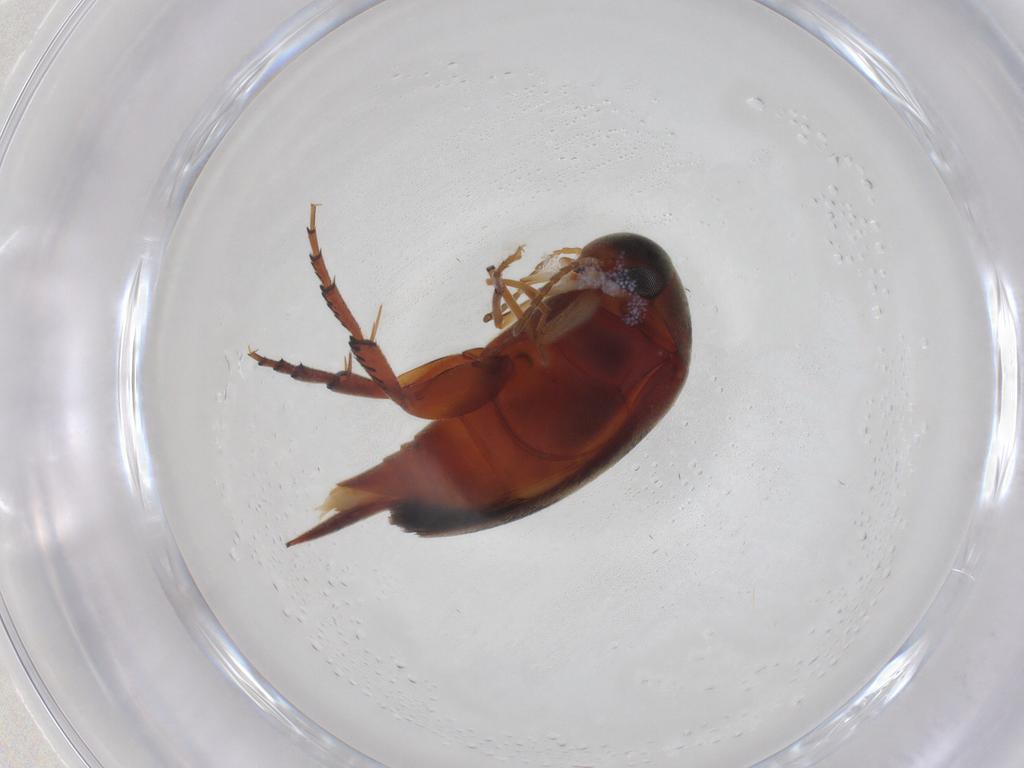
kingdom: Animalia
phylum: Arthropoda
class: Insecta
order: Coleoptera
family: Mordellidae
